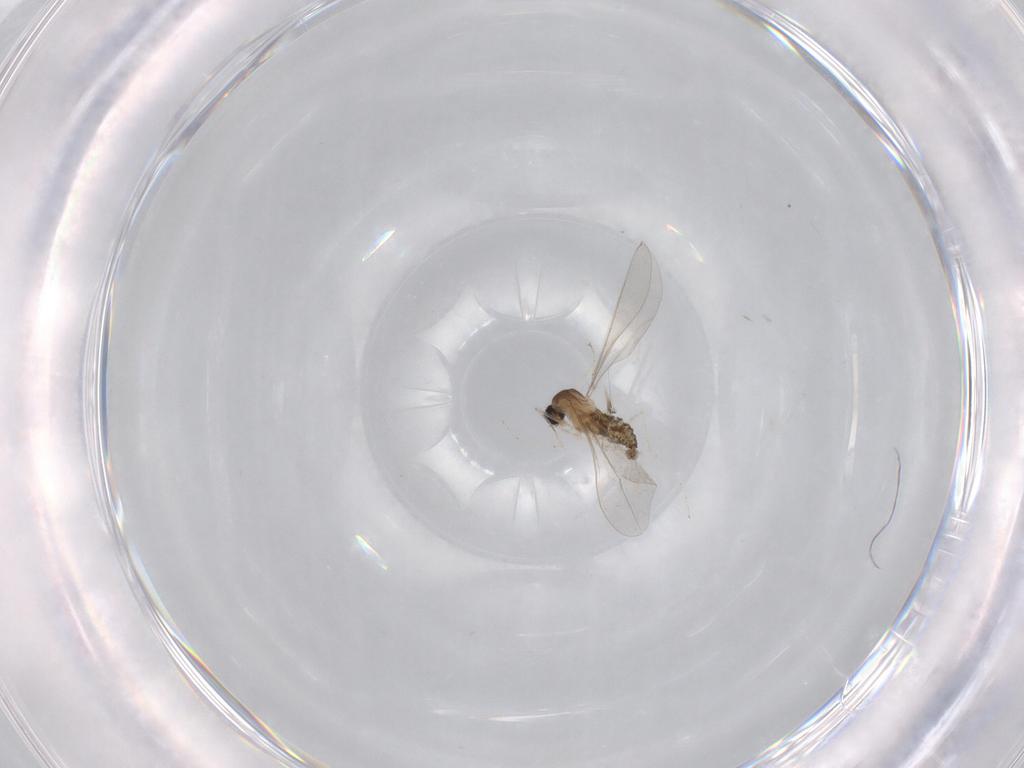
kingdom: Animalia
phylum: Arthropoda
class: Insecta
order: Diptera
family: Cecidomyiidae
